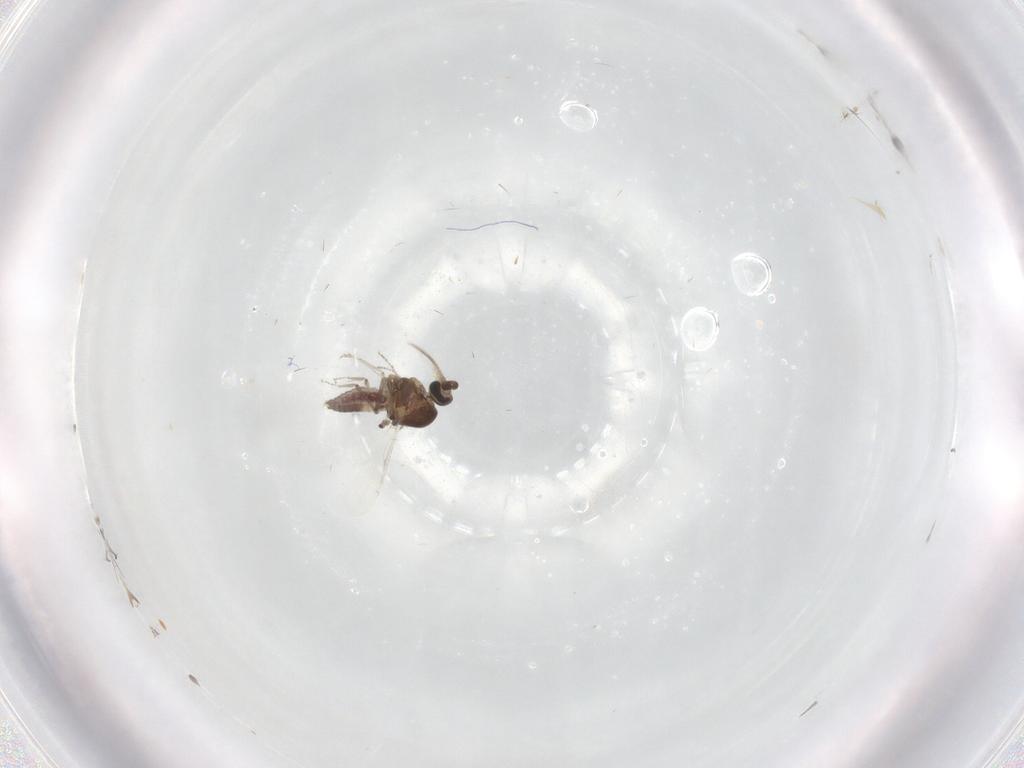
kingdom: Animalia
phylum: Arthropoda
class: Insecta
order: Diptera
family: Ceratopogonidae
